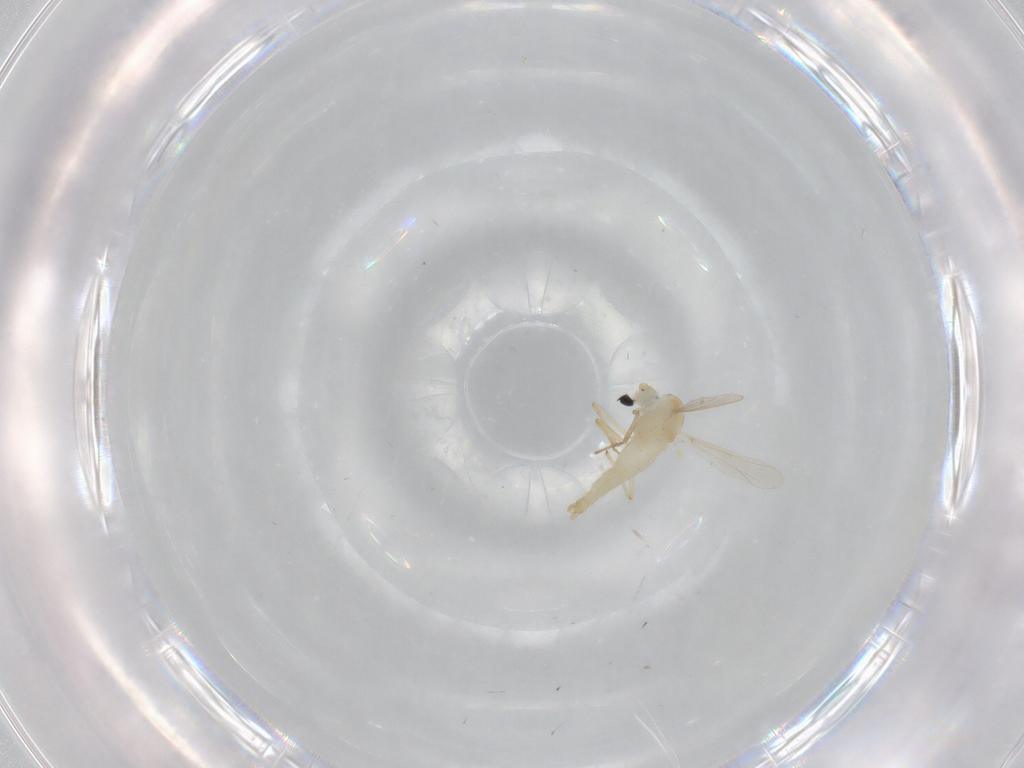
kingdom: Animalia
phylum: Arthropoda
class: Insecta
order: Diptera
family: Chironomidae
